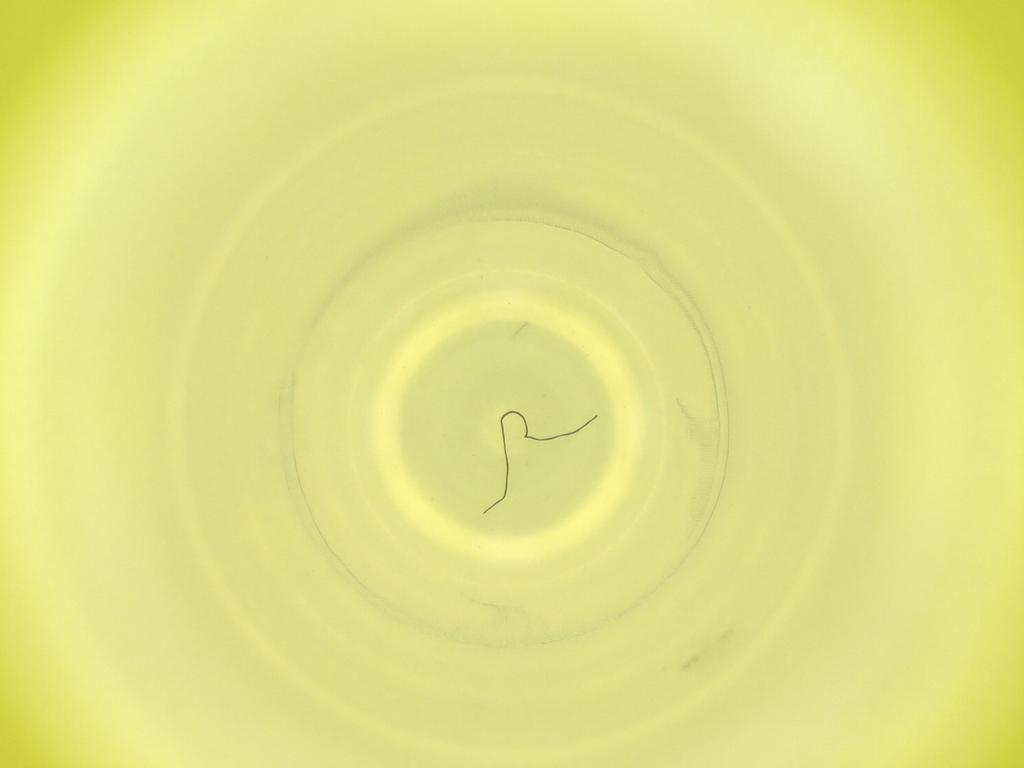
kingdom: Animalia
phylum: Arthropoda
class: Insecta
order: Diptera
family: Cecidomyiidae
